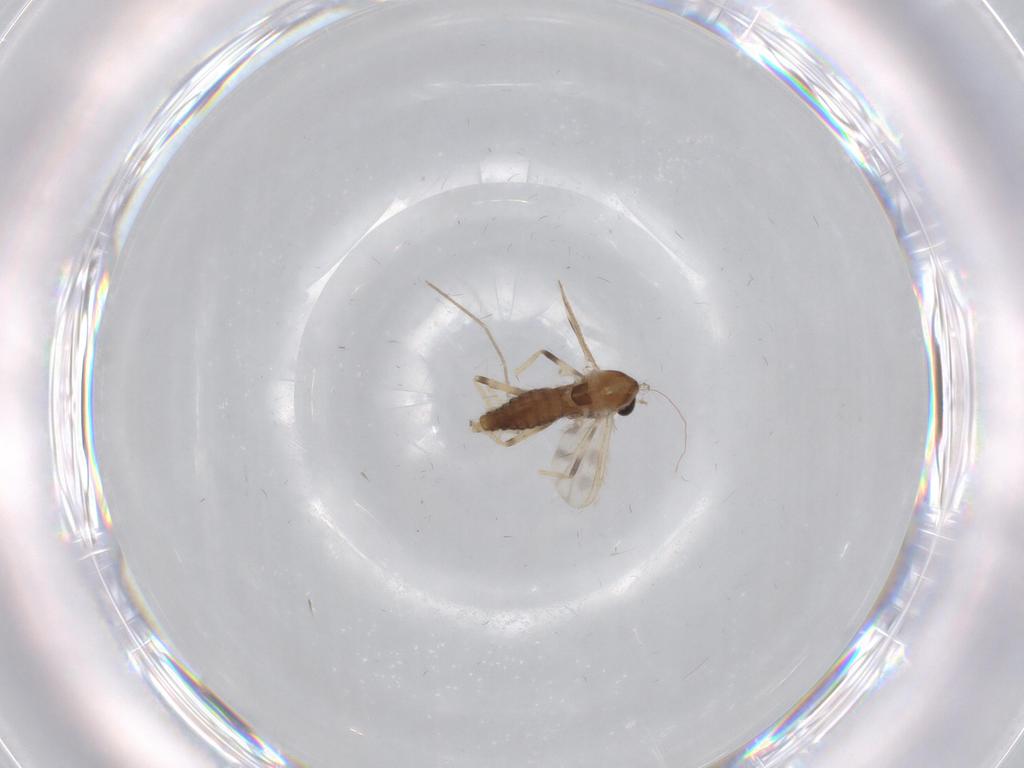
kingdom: Animalia
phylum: Arthropoda
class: Insecta
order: Diptera
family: Chironomidae
